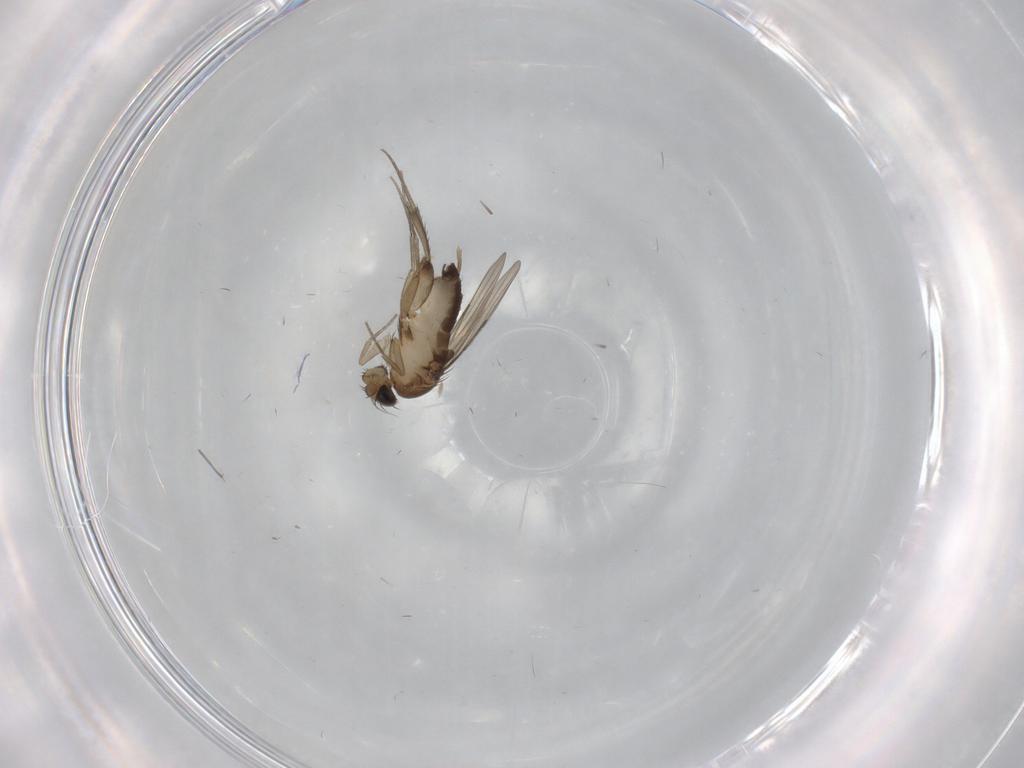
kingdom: Animalia
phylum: Arthropoda
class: Insecta
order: Diptera
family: Phoridae
